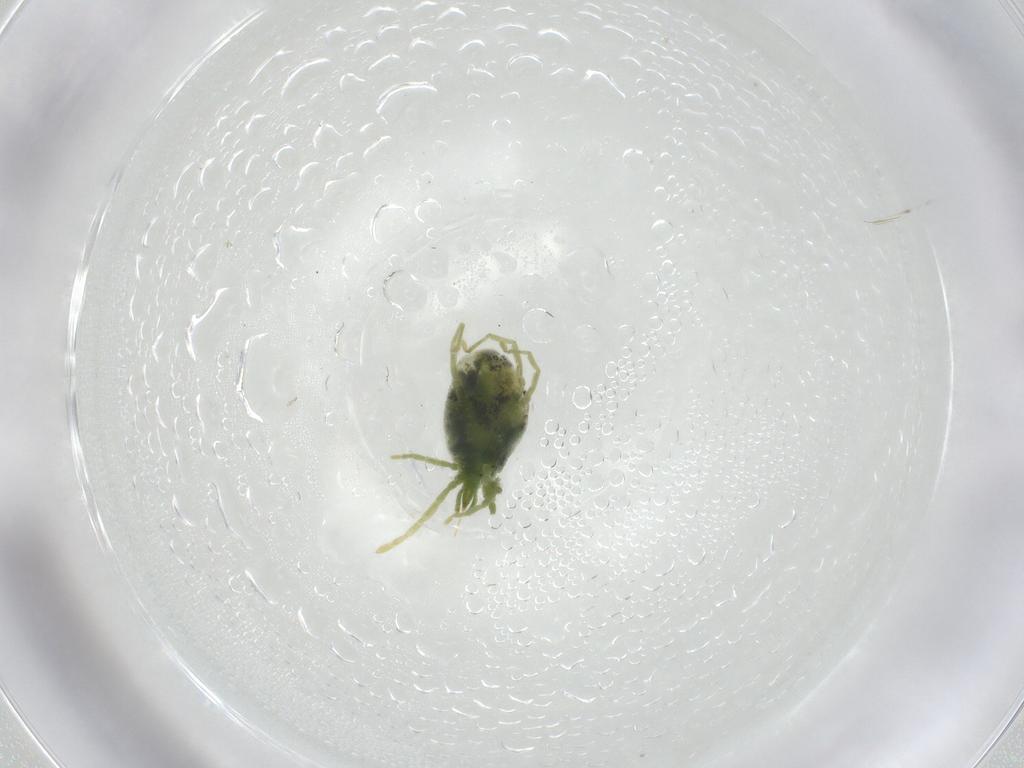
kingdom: Animalia
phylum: Arthropoda
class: Arachnida
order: Trombidiformes
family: Erythraeidae
